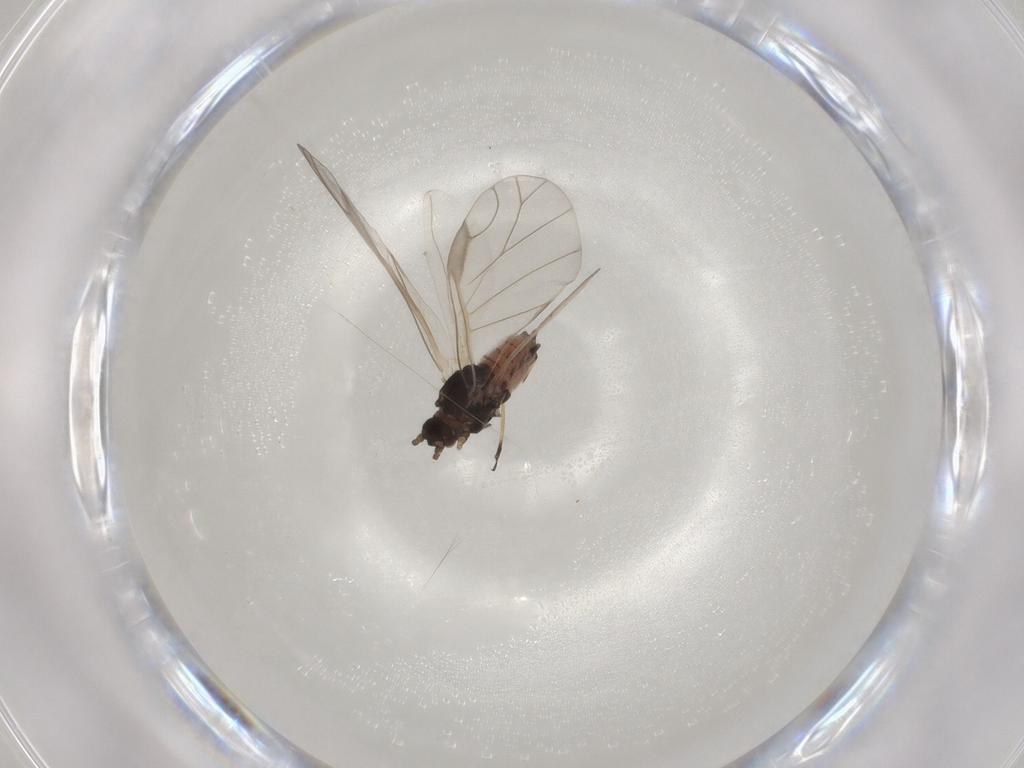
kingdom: Animalia
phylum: Arthropoda
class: Insecta
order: Hemiptera
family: Aphididae
